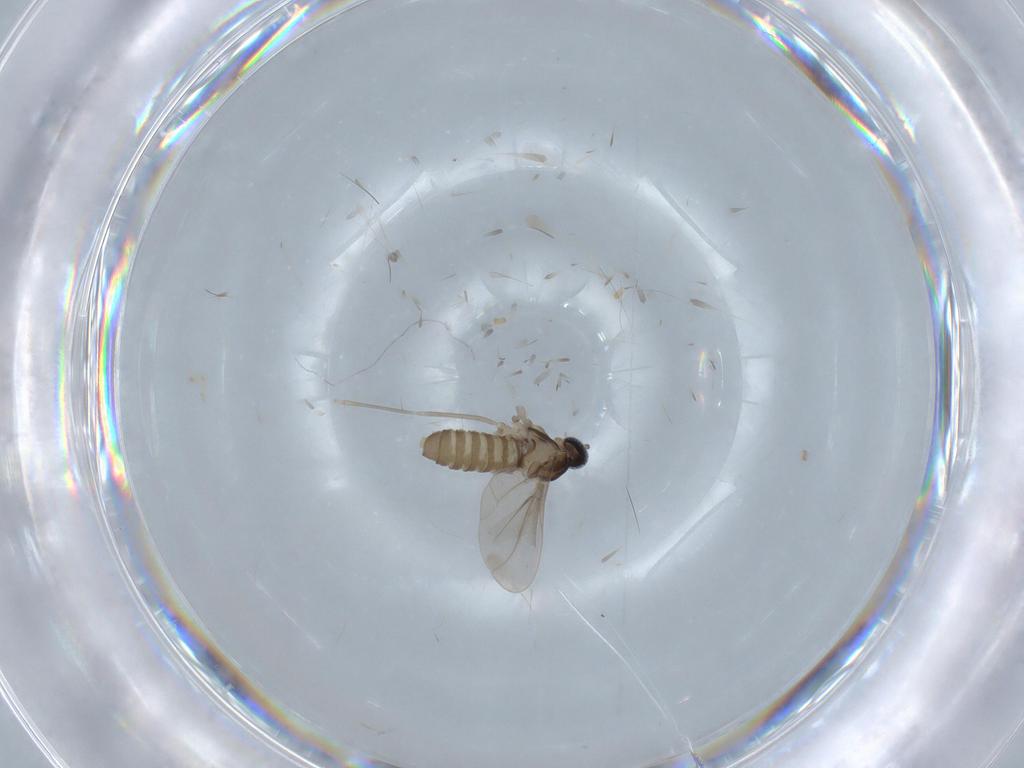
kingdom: Animalia
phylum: Arthropoda
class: Insecta
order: Diptera
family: Cecidomyiidae
